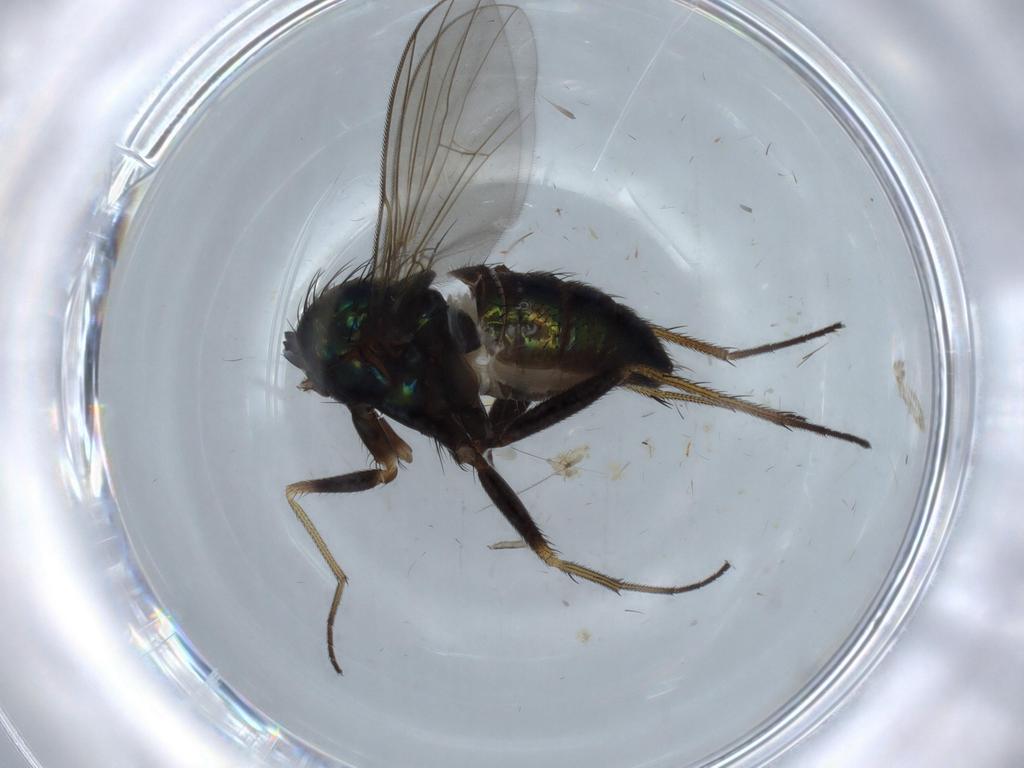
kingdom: Animalia
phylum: Arthropoda
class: Insecta
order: Diptera
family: Dolichopodidae
